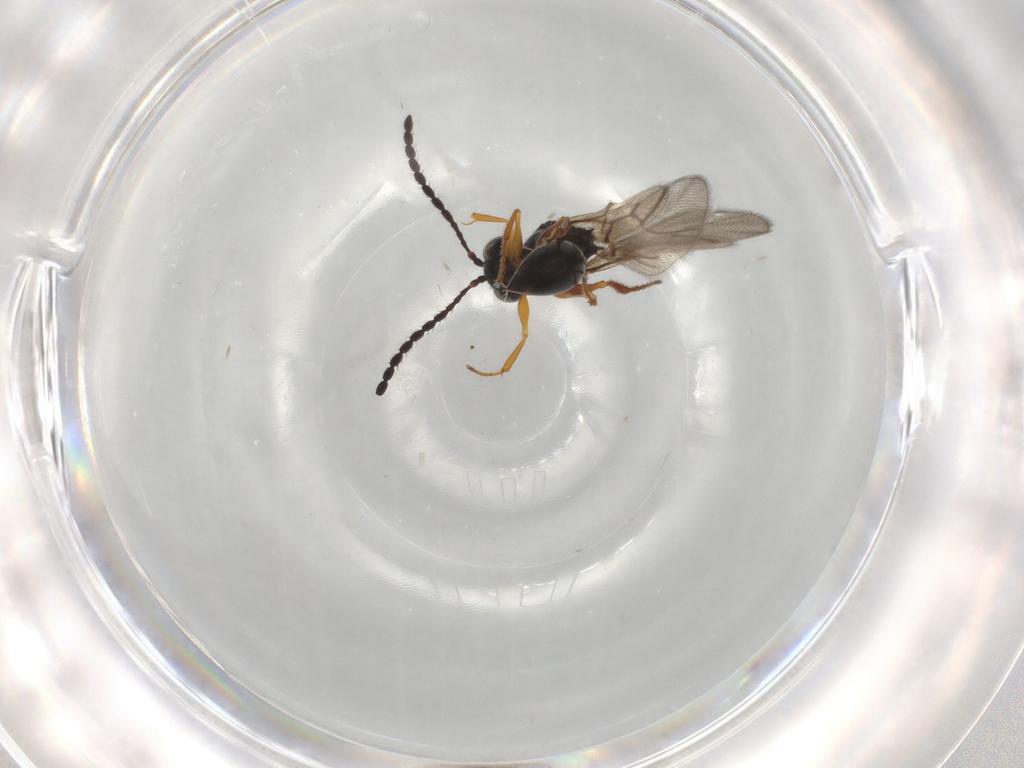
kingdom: Animalia
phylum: Arthropoda
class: Insecta
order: Hymenoptera
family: Figitidae
